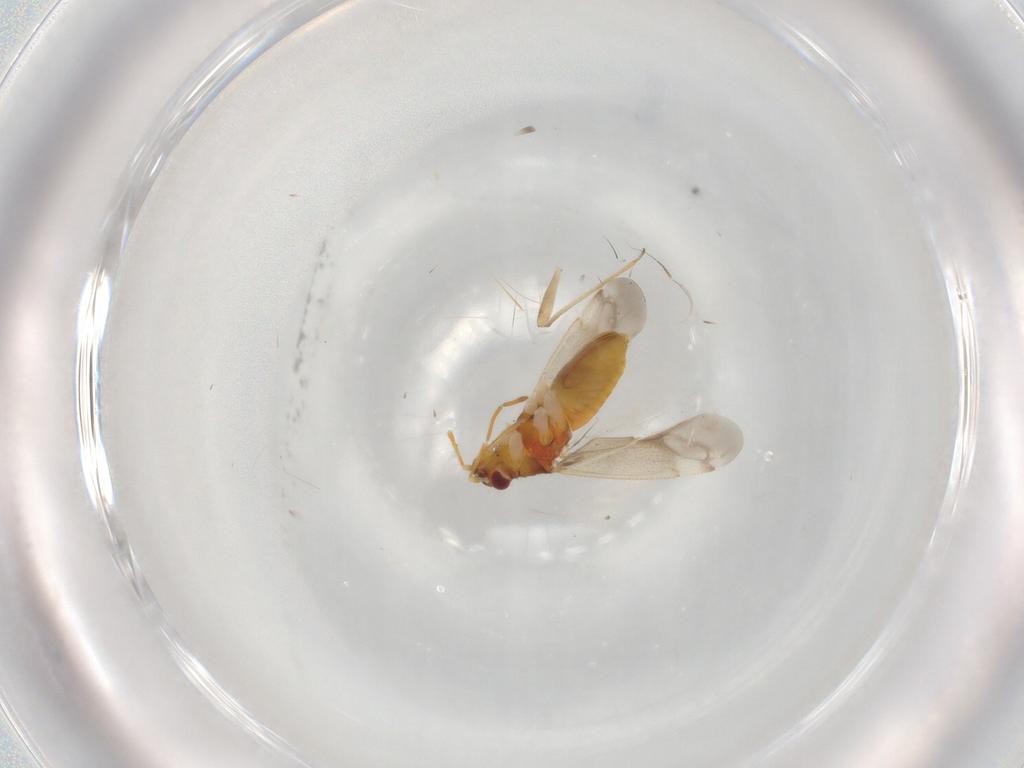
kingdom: Animalia
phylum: Arthropoda
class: Insecta
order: Hemiptera
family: Miridae
